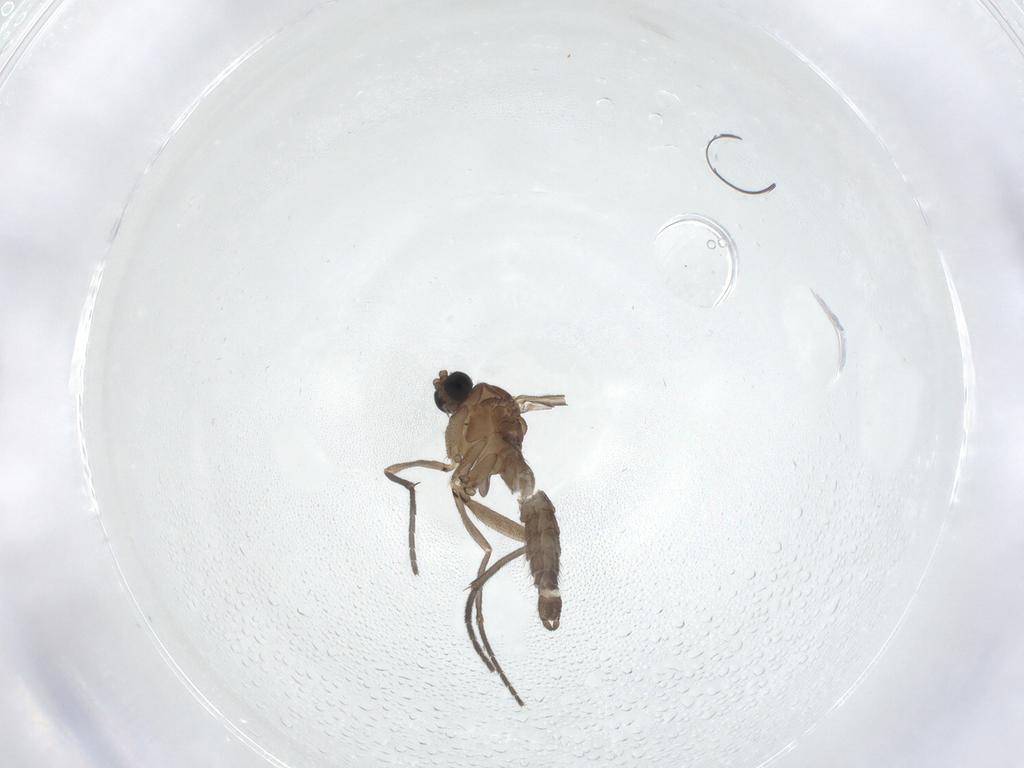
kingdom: Animalia
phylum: Arthropoda
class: Insecta
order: Diptera
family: Sciaridae
